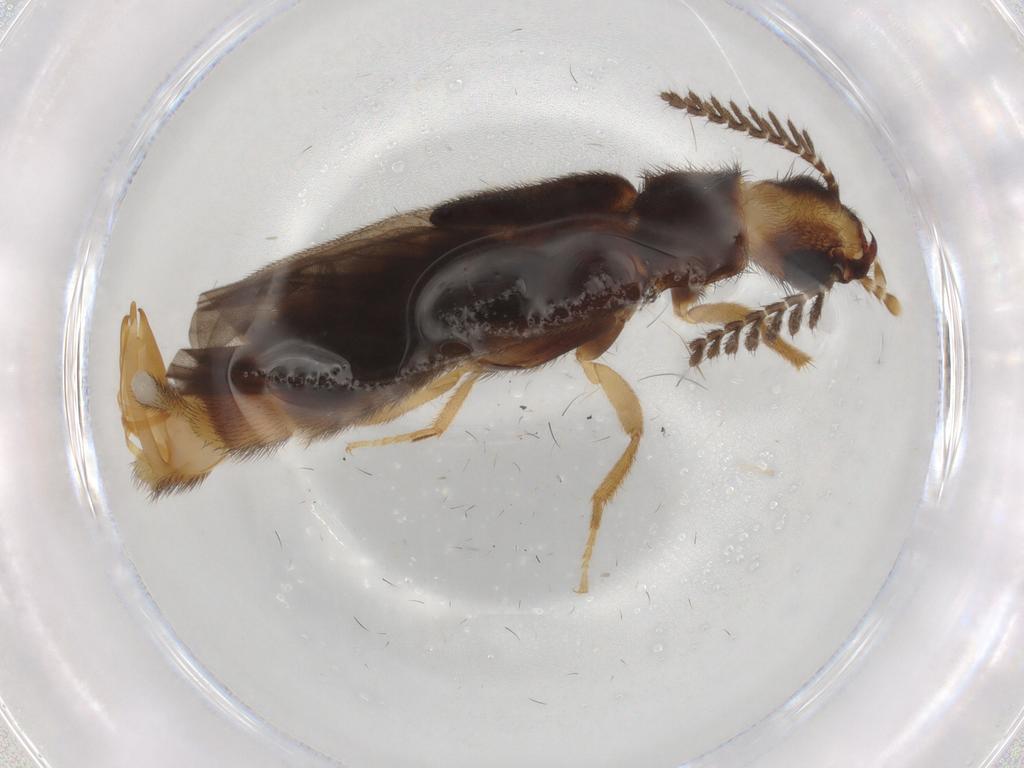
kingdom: Animalia
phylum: Arthropoda
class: Insecta
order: Coleoptera
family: Phengodidae
